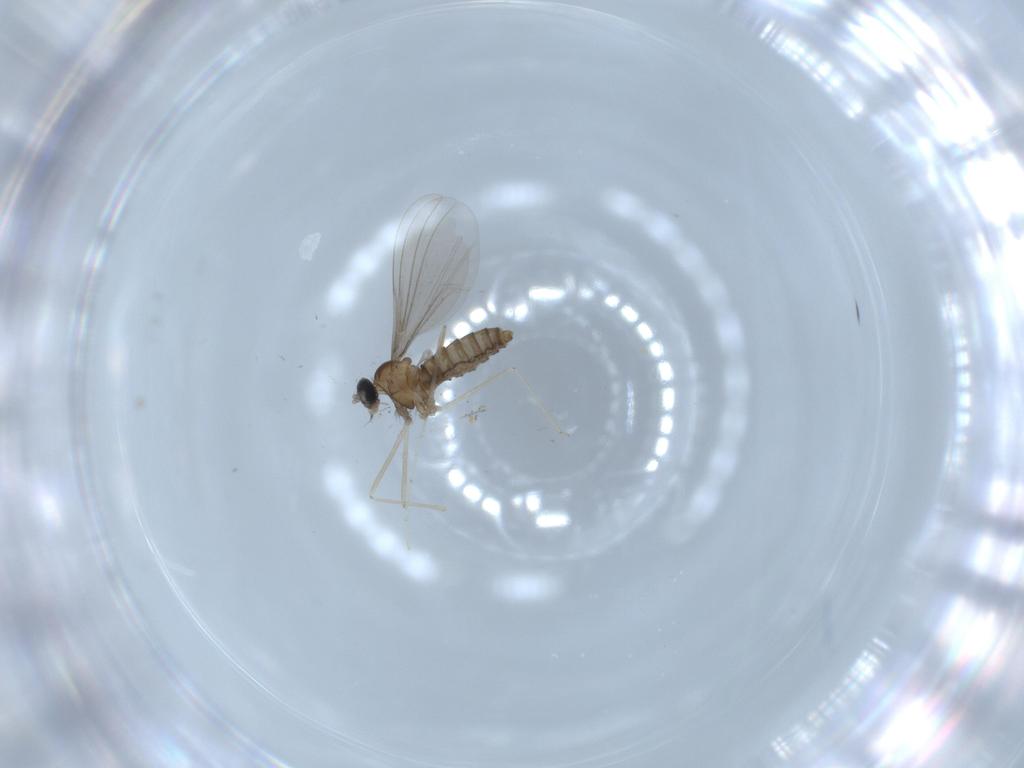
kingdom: Animalia
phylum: Arthropoda
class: Insecta
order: Diptera
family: Cecidomyiidae
